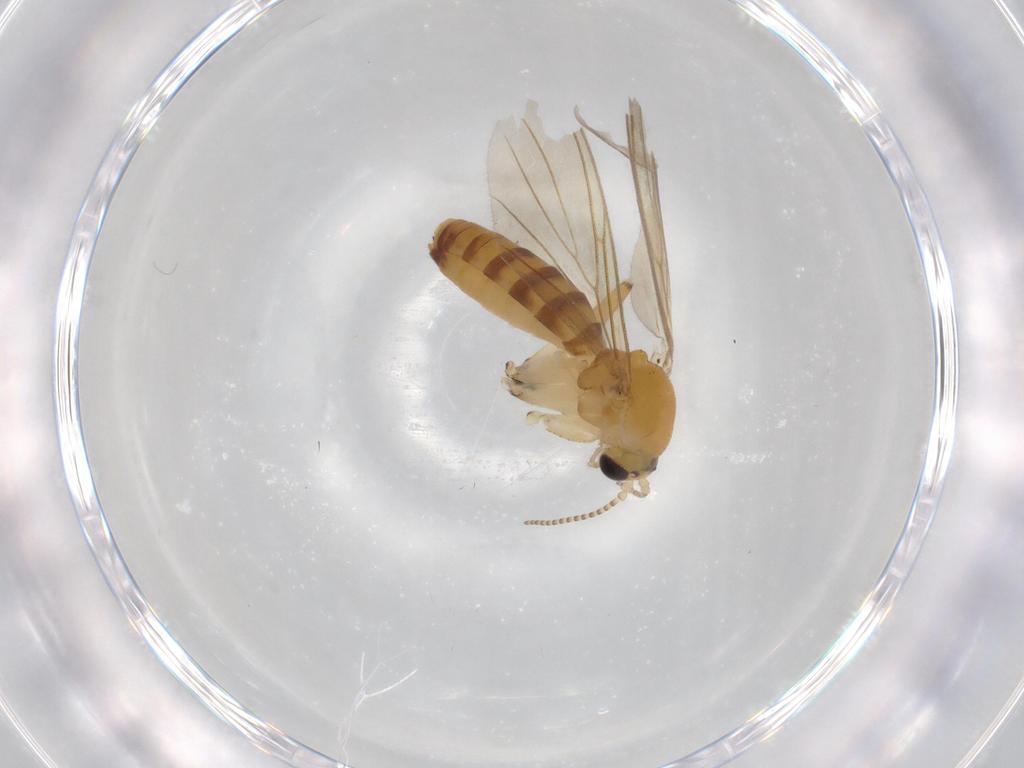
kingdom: Animalia
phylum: Arthropoda
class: Insecta
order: Diptera
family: Mycetophilidae
